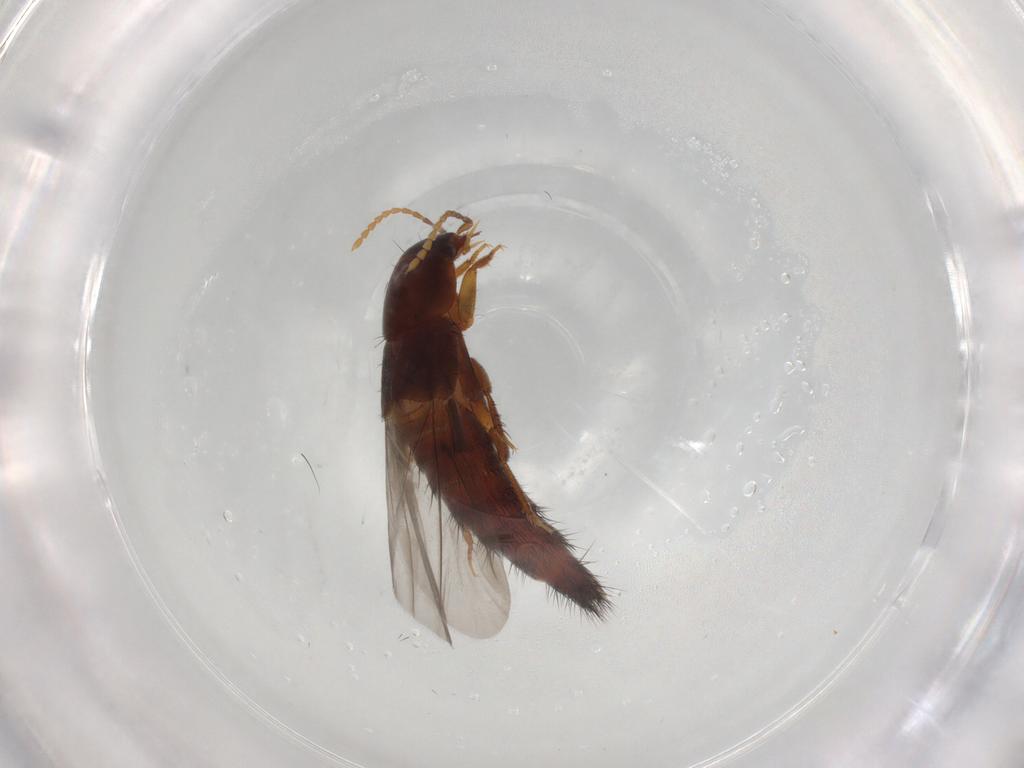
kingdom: Animalia
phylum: Arthropoda
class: Insecta
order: Coleoptera
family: Staphylinidae
